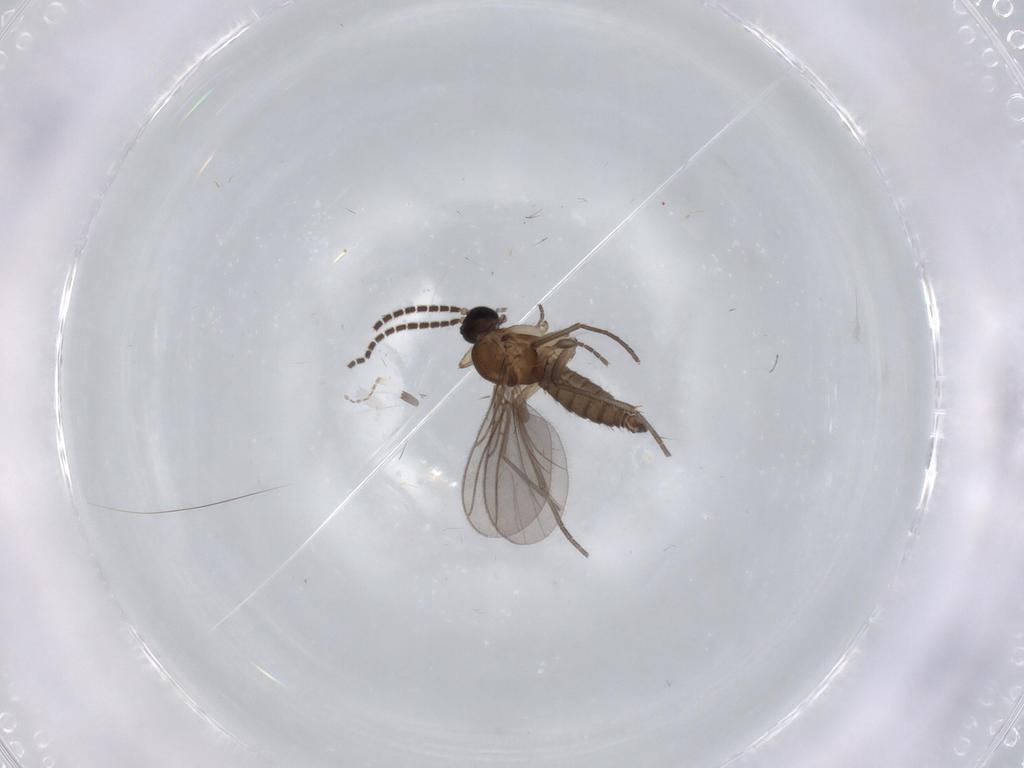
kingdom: Animalia
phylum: Arthropoda
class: Insecta
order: Diptera
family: Sciaridae
